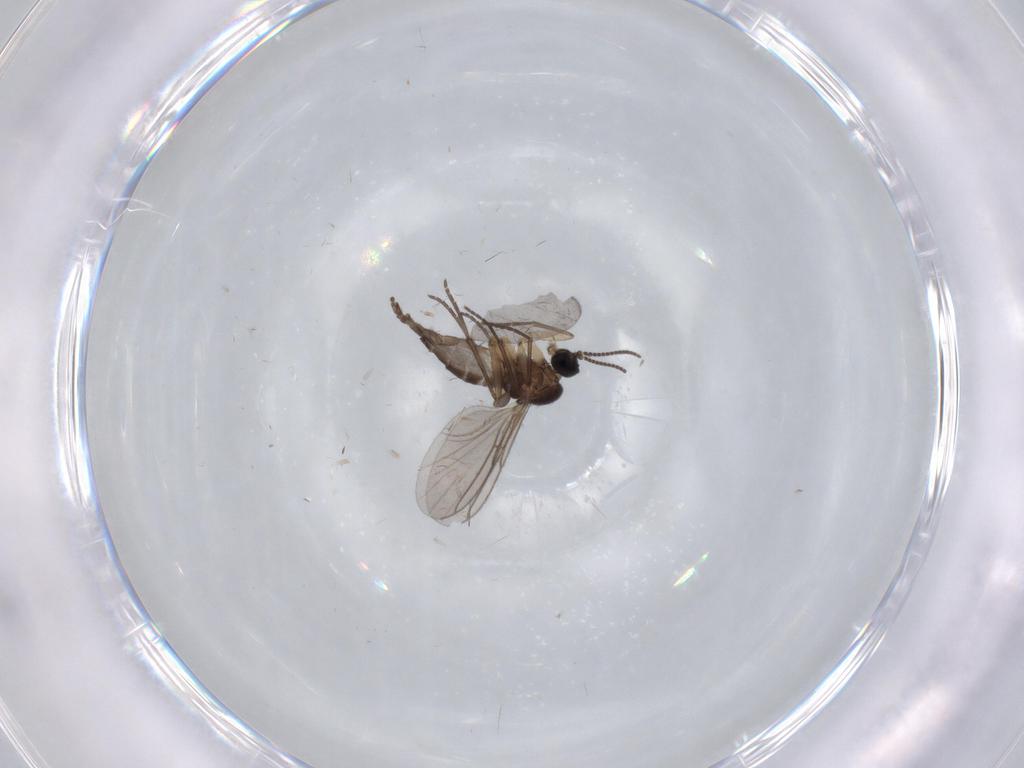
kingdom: Animalia
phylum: Arthropoda
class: Insecta
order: Diptera
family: Sciaridae
